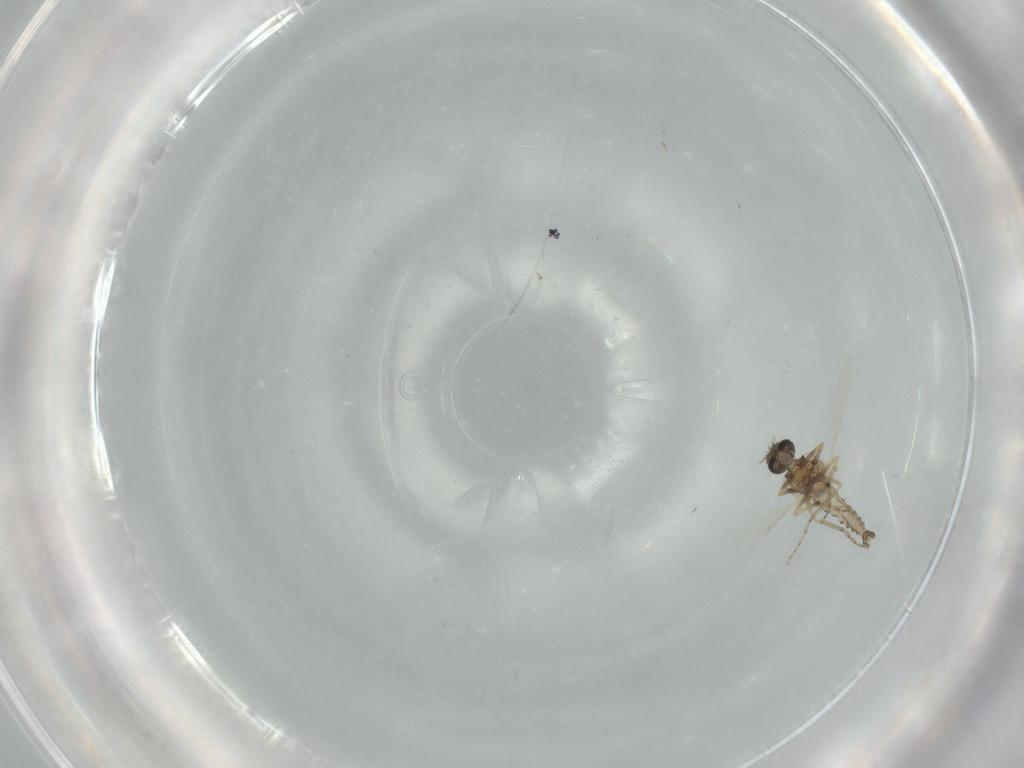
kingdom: Animalia
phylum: Arthropoda
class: Insecta
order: Diptera
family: Ceratopogonidae
